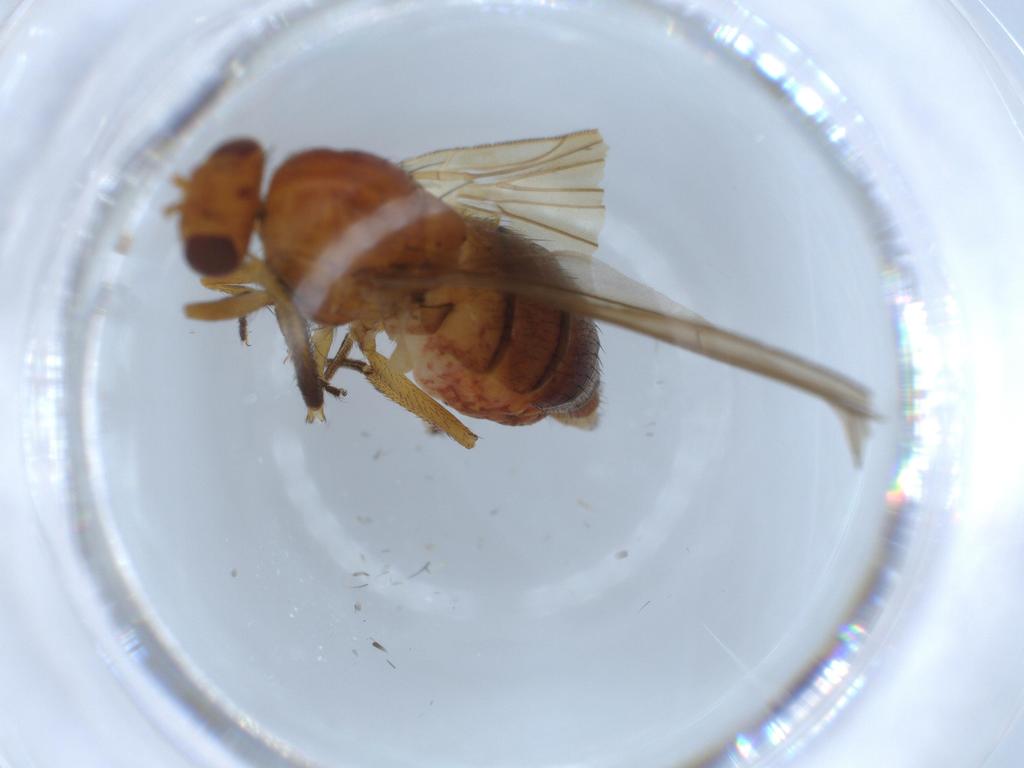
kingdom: Animalia
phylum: Arthropoda
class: Insecta
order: Diptera
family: Lauxaniidae
